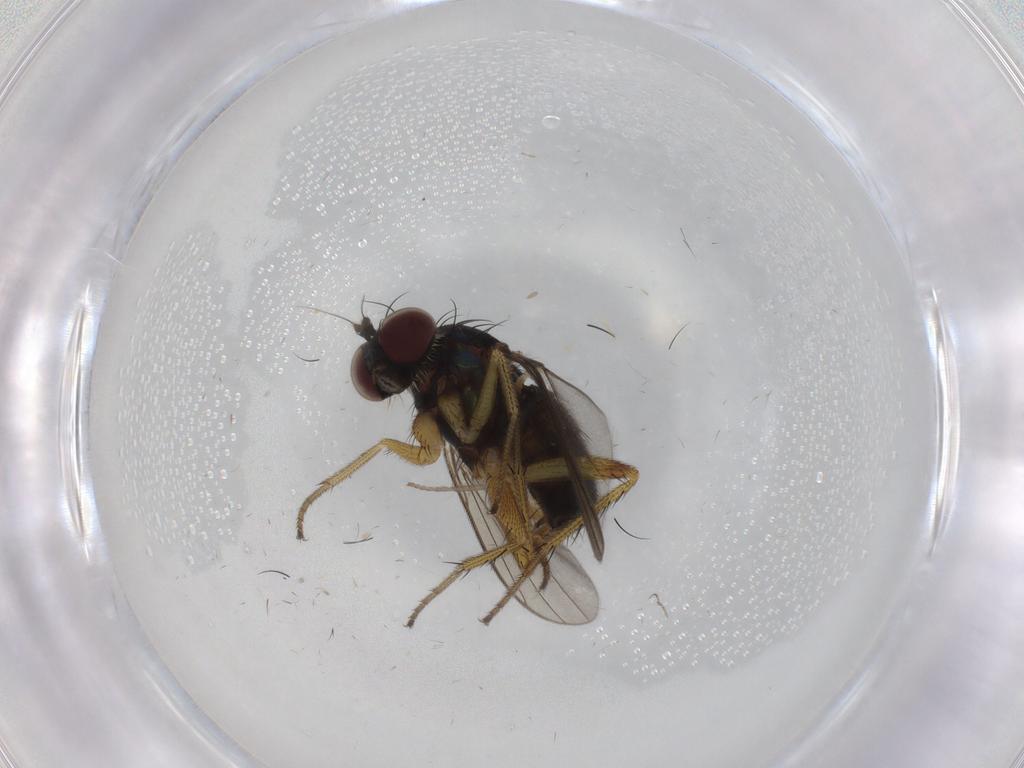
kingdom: Animalia
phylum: Arthropoda
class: Insecta
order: Diptera
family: Dolichopodidae
